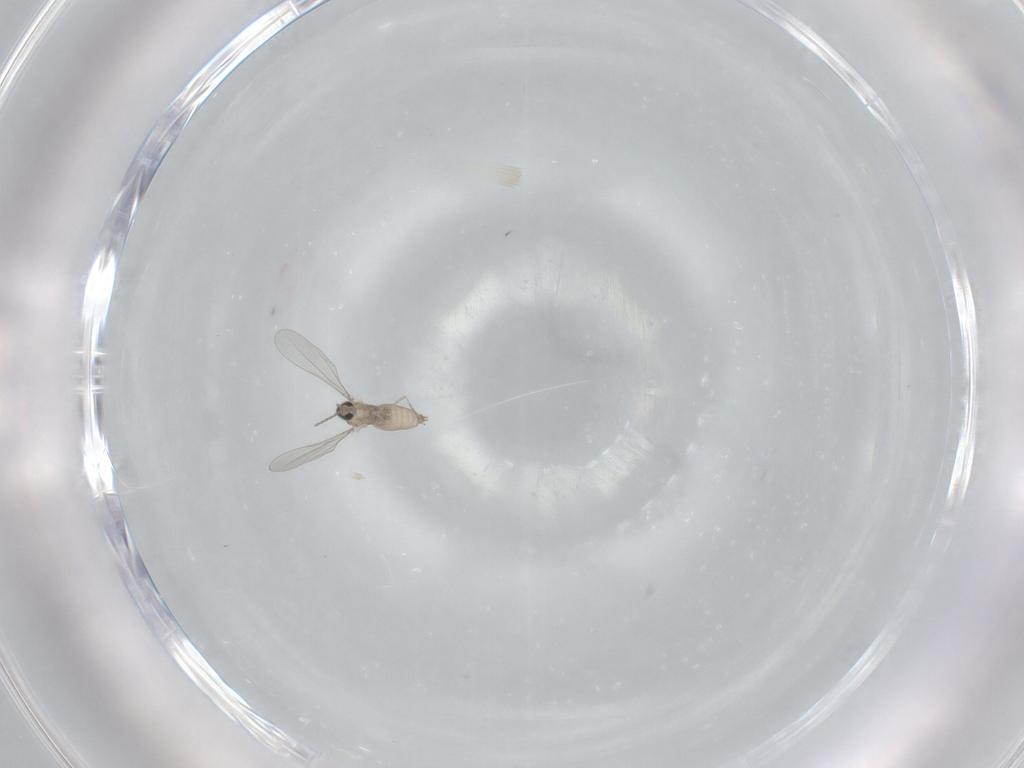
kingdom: Animalia
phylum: Arthropoda
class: Insecta
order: Diptera
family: Cecidomyiidae
